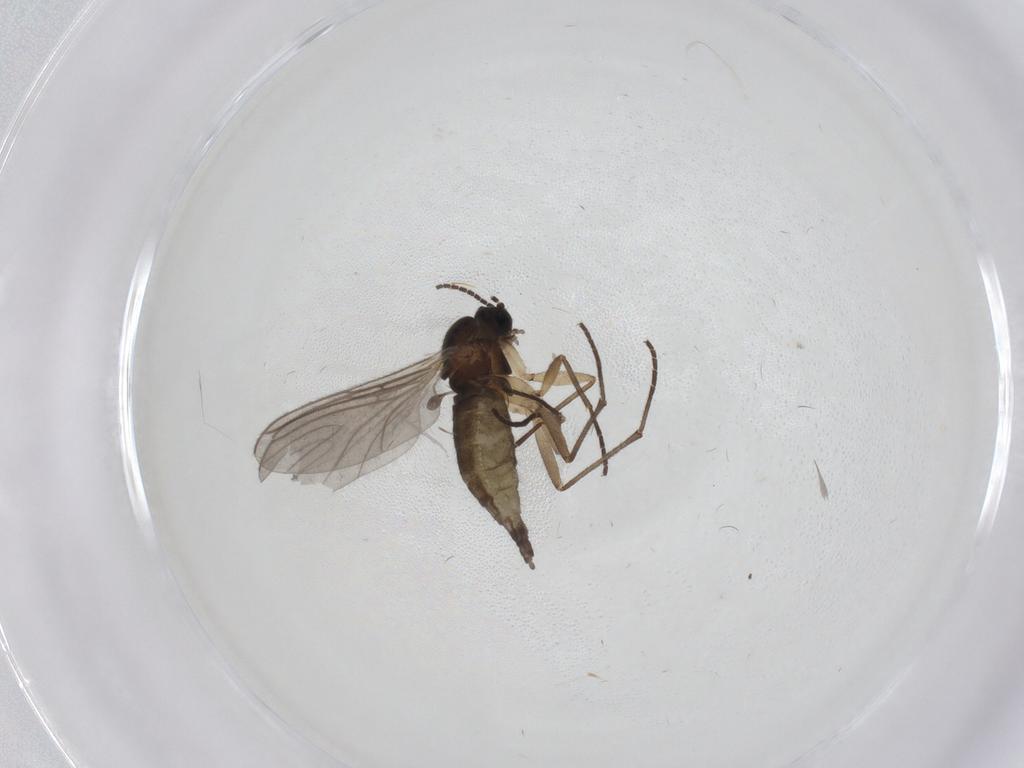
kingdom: Animalia
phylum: Arthropoda
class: Insecta
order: Diptera
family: Sciaridae
